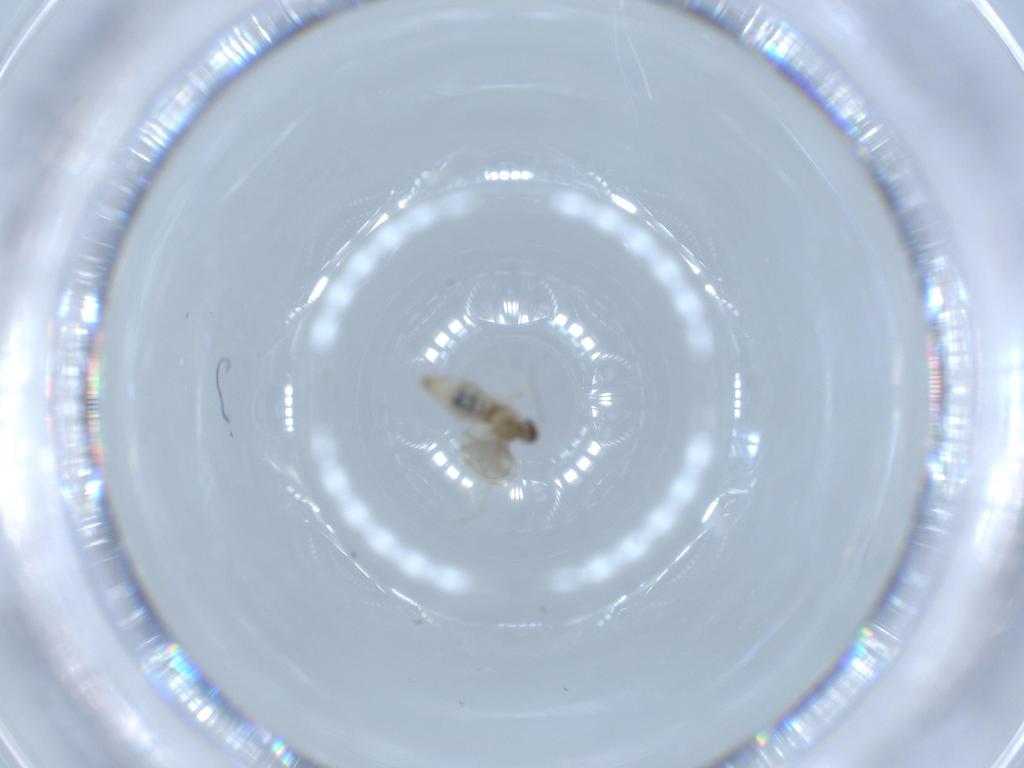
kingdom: Animalia
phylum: Arthropoda
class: Insecta
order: Diptera
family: Cecidomyiidae
